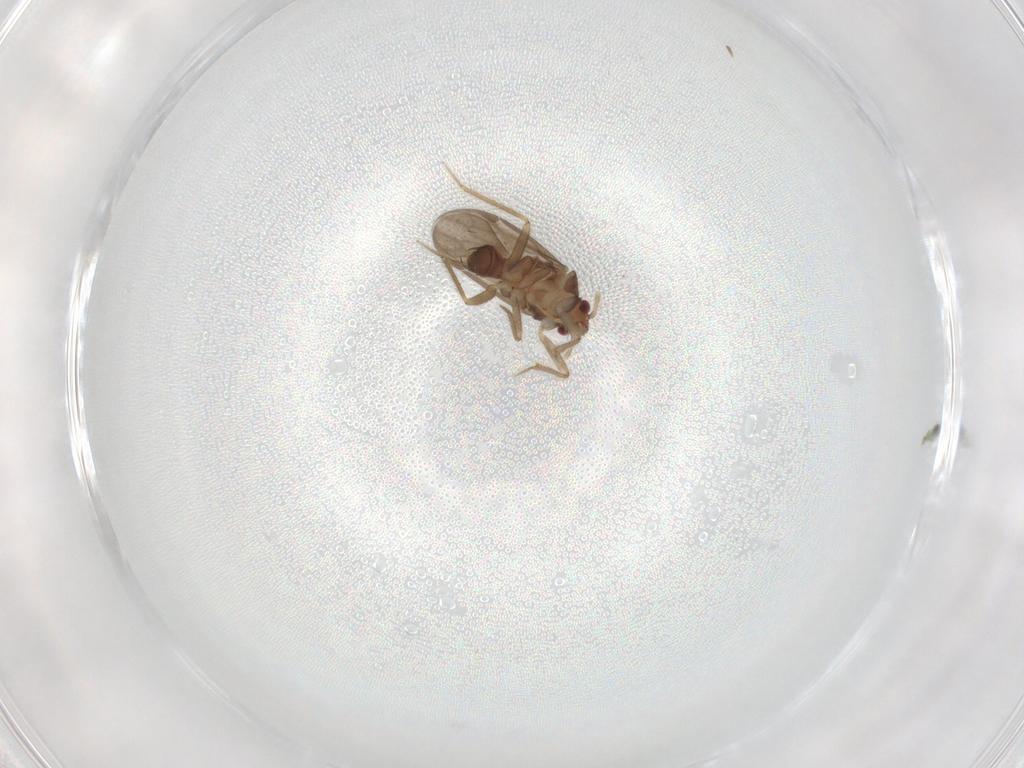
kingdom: Animalia
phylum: Arthropoda
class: Insecta
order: Hemiptera
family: Ceratocombidae
